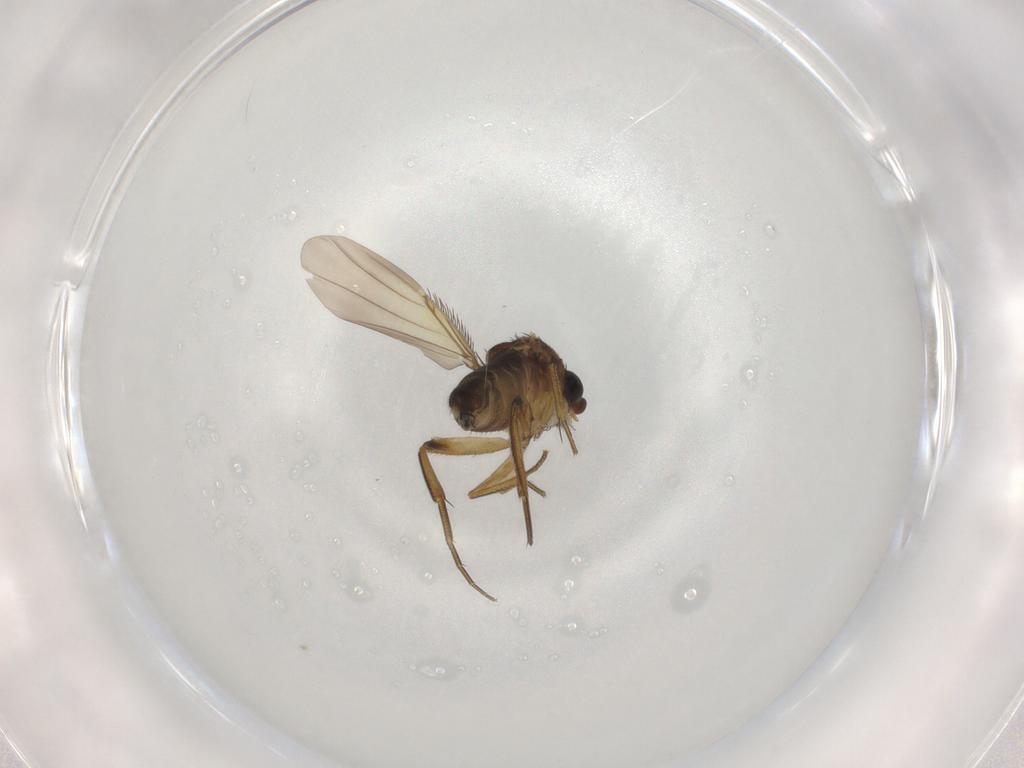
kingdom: Animalia
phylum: Arthropoda
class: Insecta
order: Diptera
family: Phoridae
